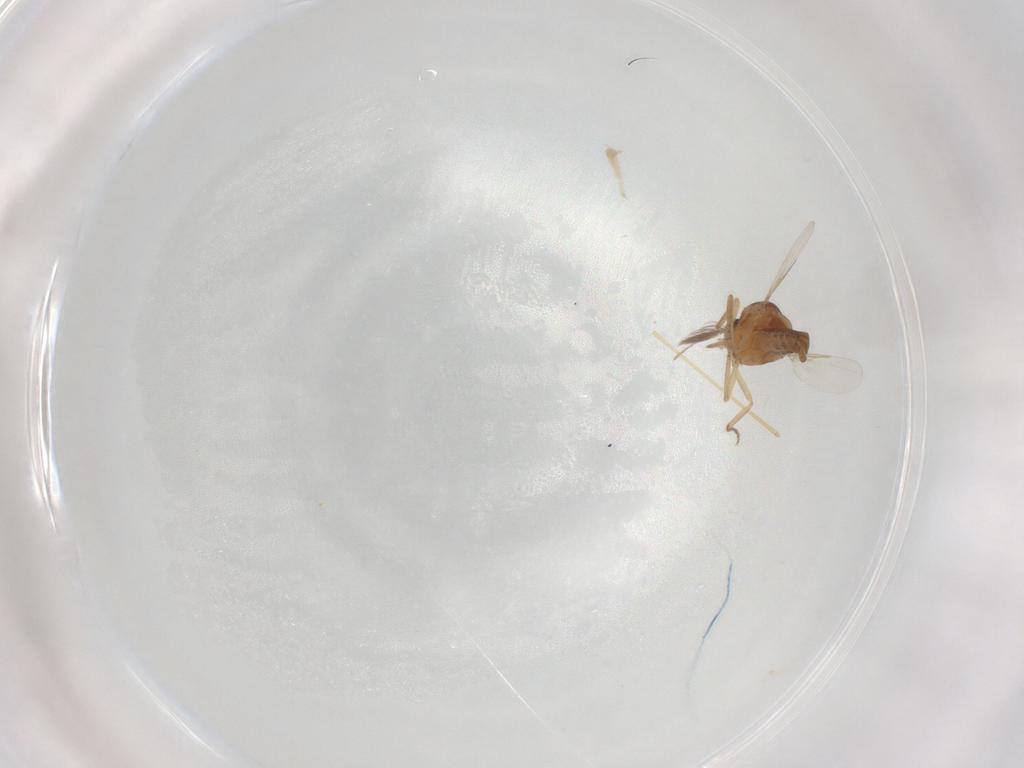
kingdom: Animalia
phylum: Arthropoda
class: Insecta
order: Diptera
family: Ceratopogonidae
